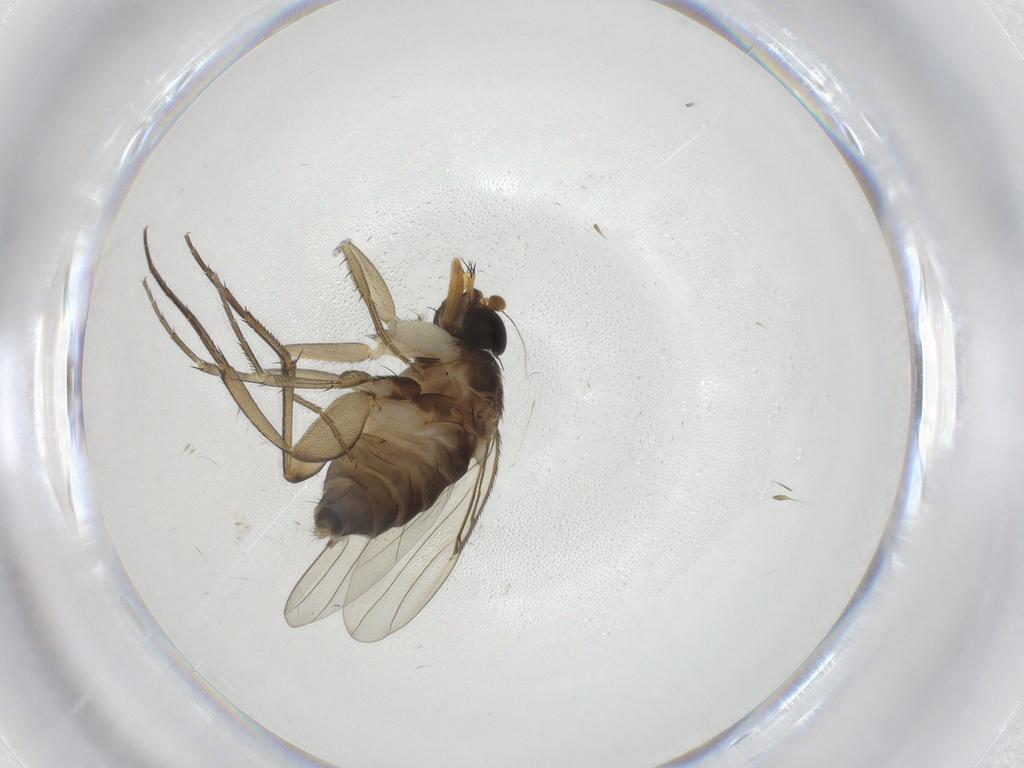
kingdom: Animalia
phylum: Arthropoda
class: Insecta
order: Diptera
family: Phoridae
